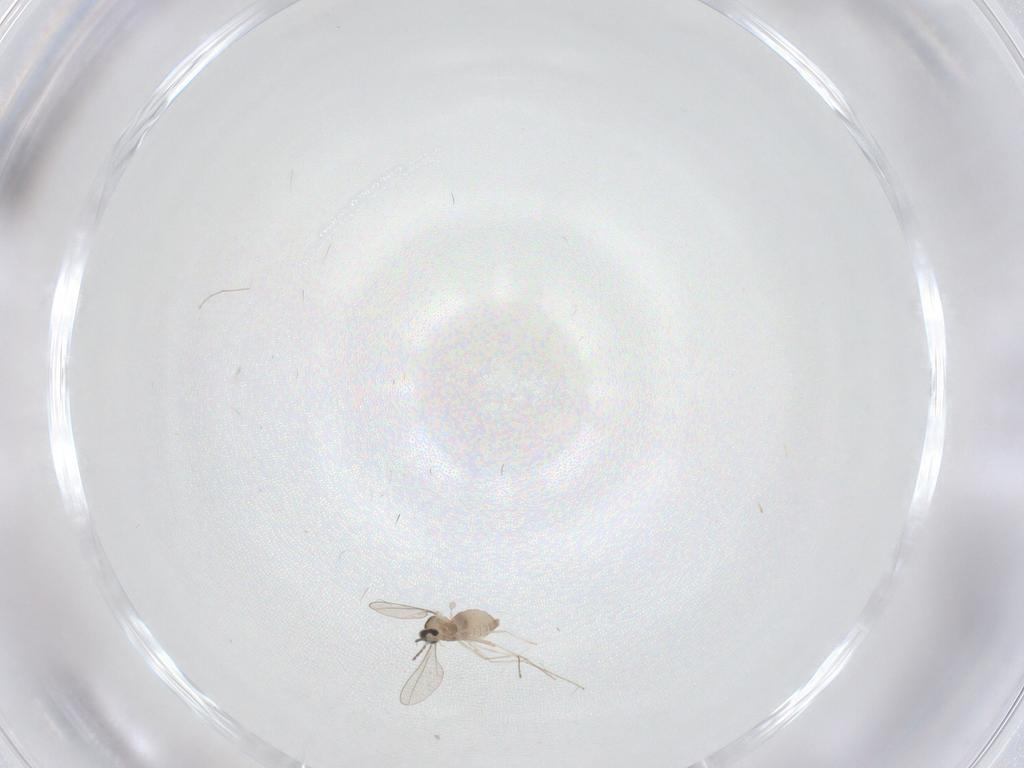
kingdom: Animalia
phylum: Arthropoda
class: Insecta
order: Diptera
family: Cecidomyiidae
